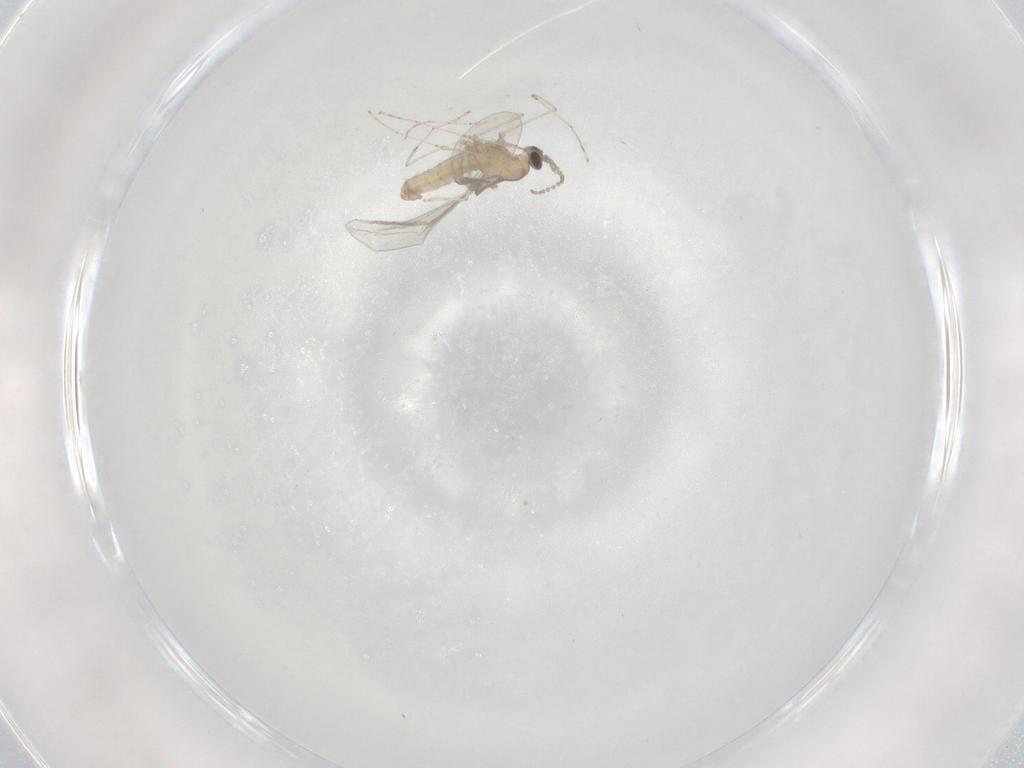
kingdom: Animalia
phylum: Arthropoda
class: Insecta
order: Diptera
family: Cecidomyiidae
